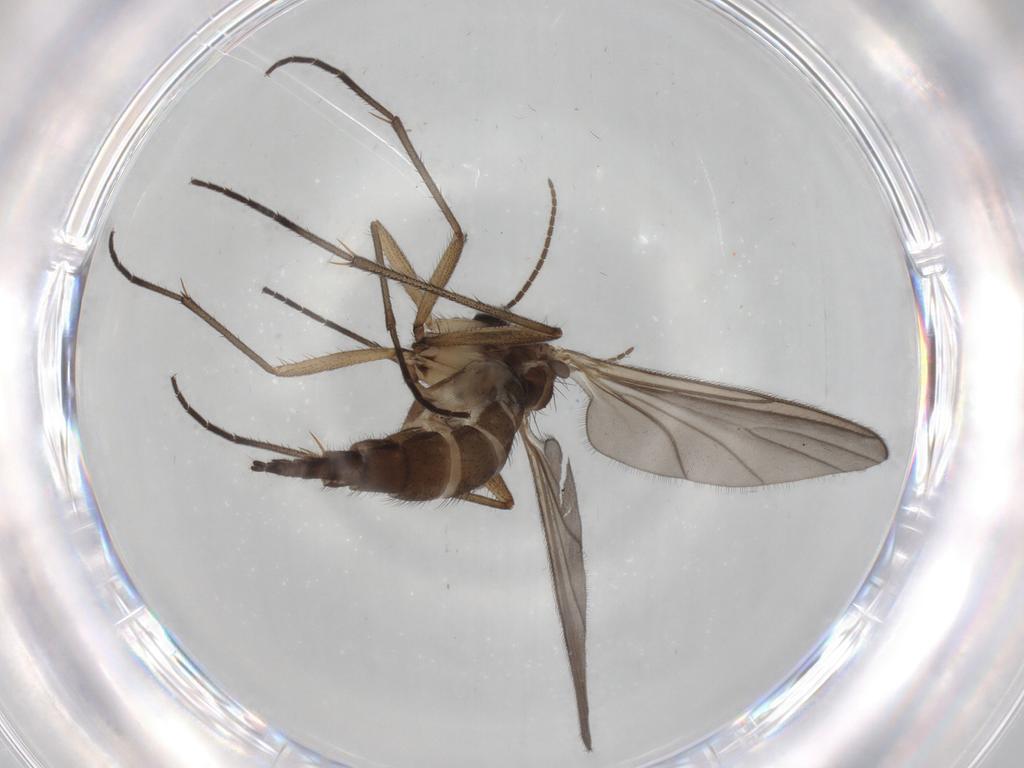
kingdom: Animalia
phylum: Arthropoda
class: Insecta
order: Diptera
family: Sciaridae
